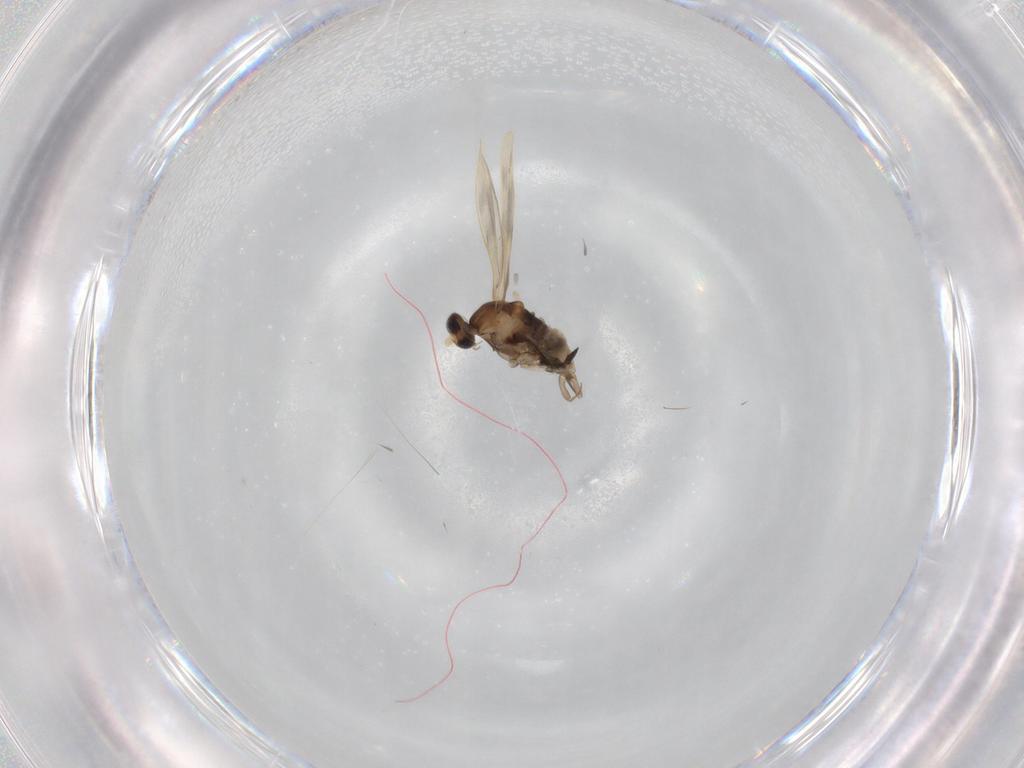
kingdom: Animalia
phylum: Arthropoda
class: Insecta
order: Diptera
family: Cecidomyiidae
